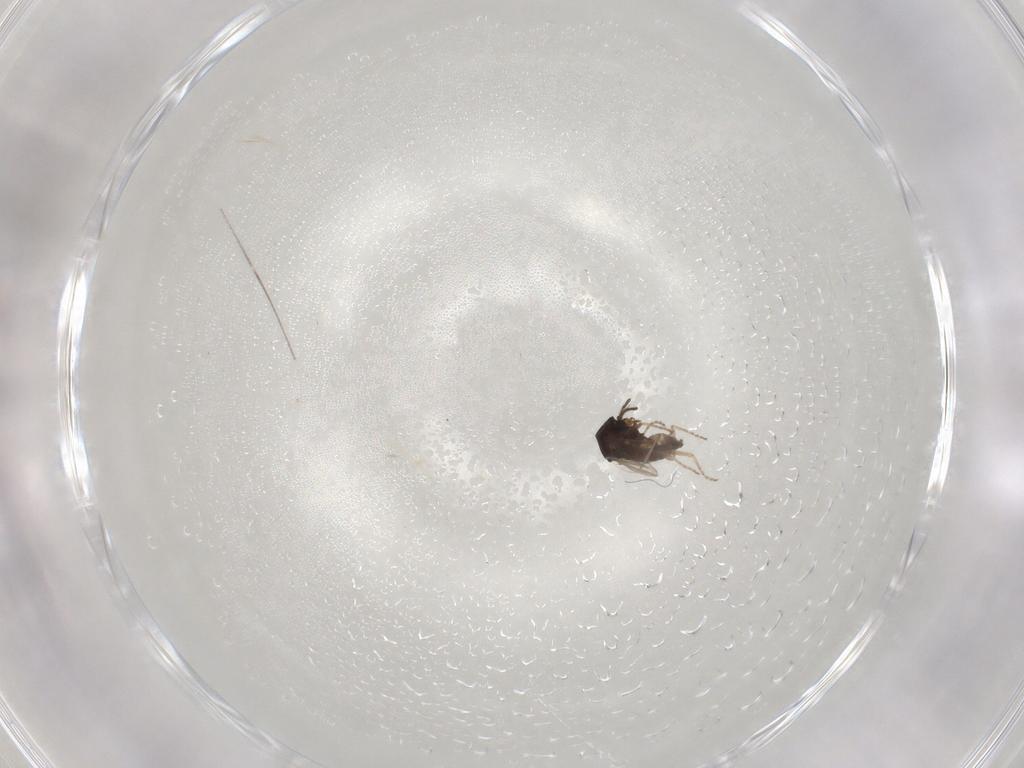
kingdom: Animalia
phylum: Arthropoda
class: Insecta
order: Diptera
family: Ceratopogonidae
